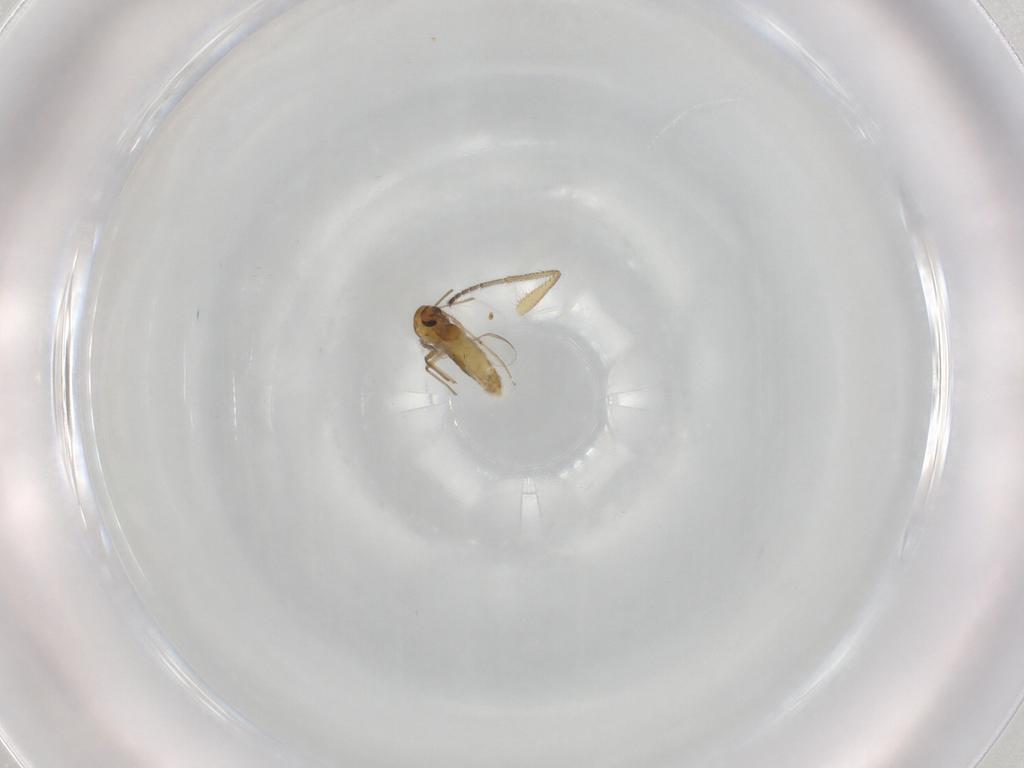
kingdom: Animalia
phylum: Arthropoda
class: Insecta
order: Diptera
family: Chironomidae
